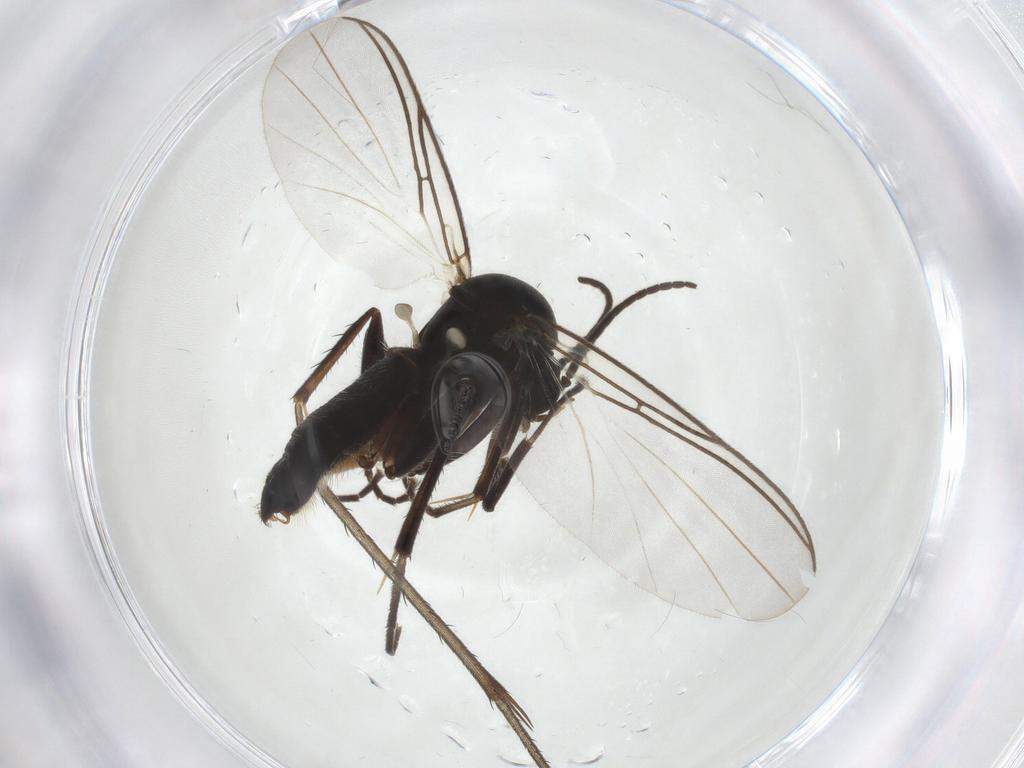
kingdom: Animalia
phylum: Arthropoda
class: Insecta
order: Diptera
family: Mycetophilidae
